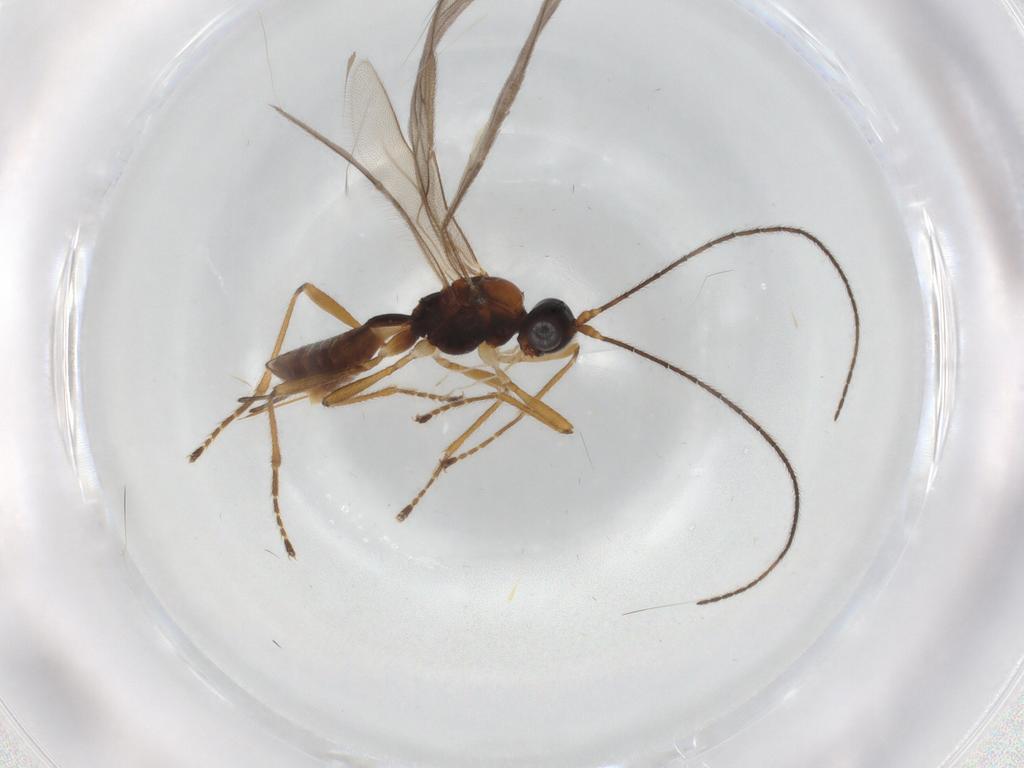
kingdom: Animalia
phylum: Arthropoda
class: Insecta
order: Hymenoptera
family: Eulophidae
